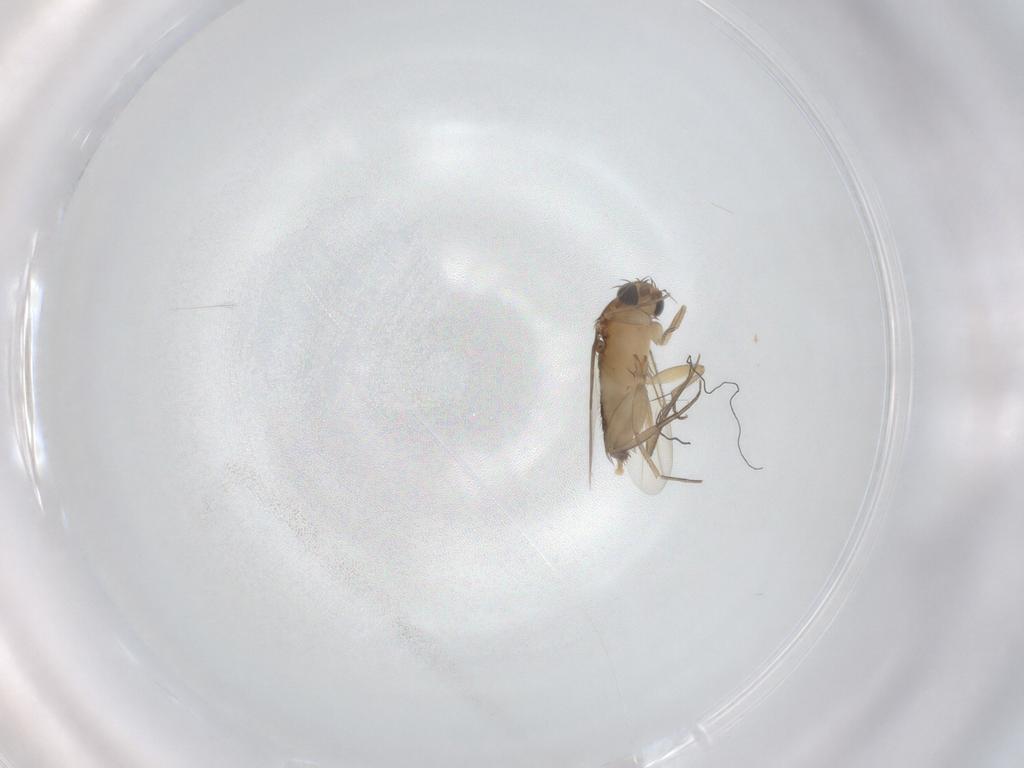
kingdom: Animalia
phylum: Arthropoda
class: Insecta
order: Diptera
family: Phoridae
